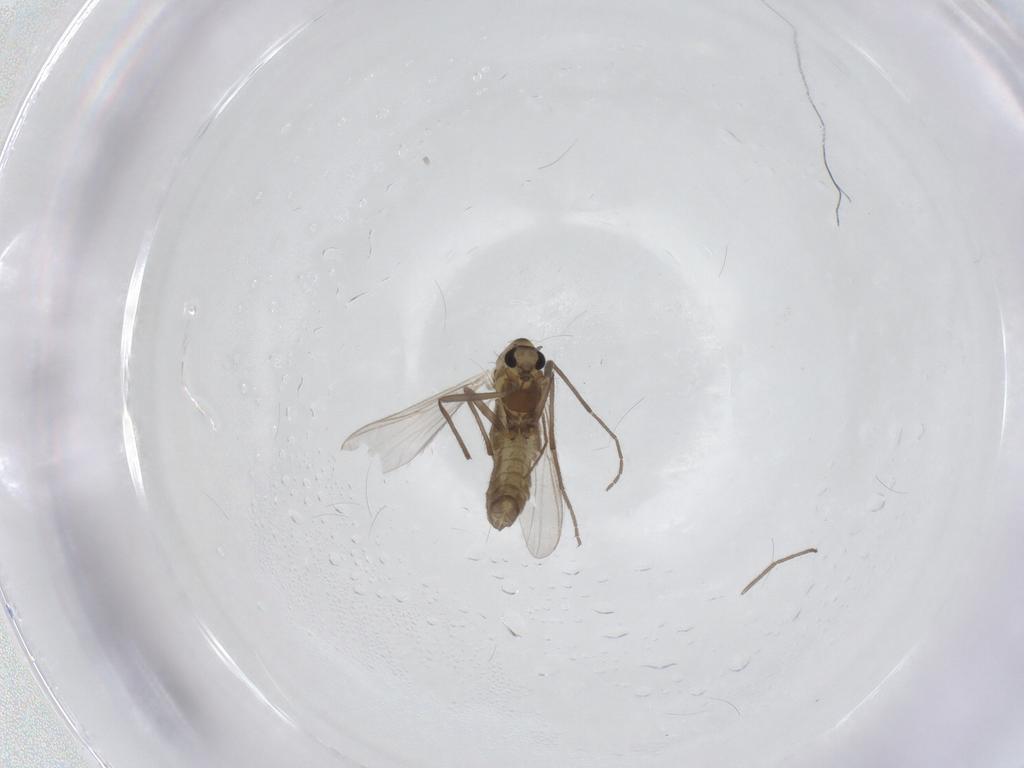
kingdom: Animalia
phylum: Arthropoda
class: Insecta
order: Diptera
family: Chironomidae
